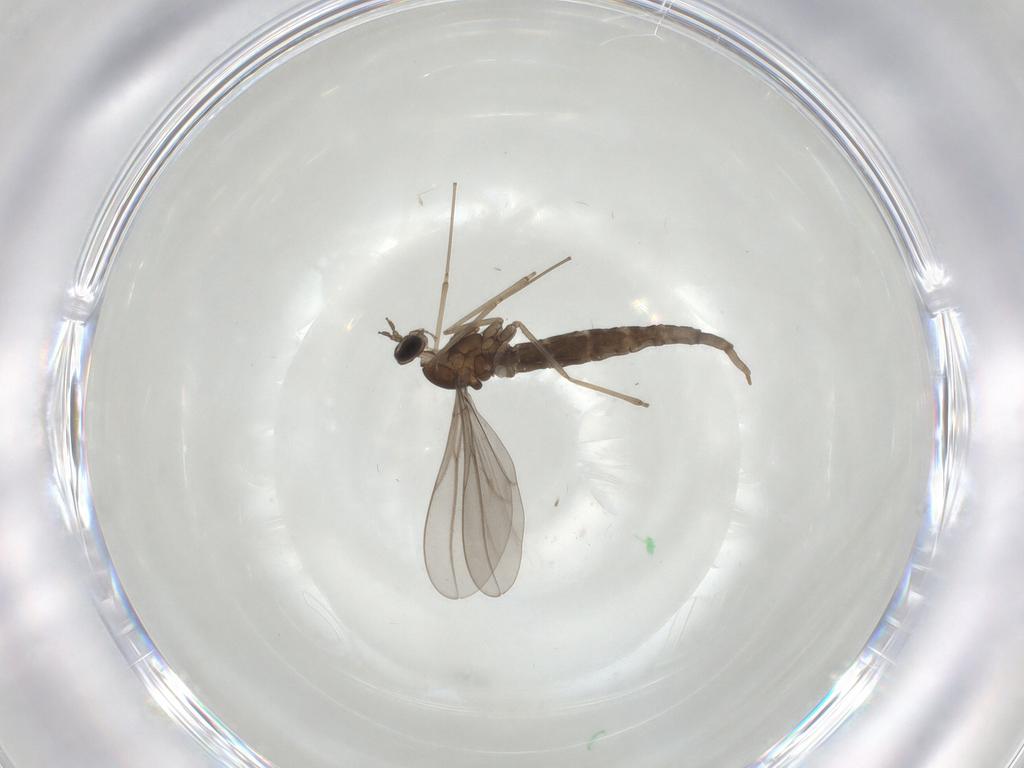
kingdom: Animalia
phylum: Arthropoda
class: Insecta
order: Diptera
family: Cecidomyiidae
